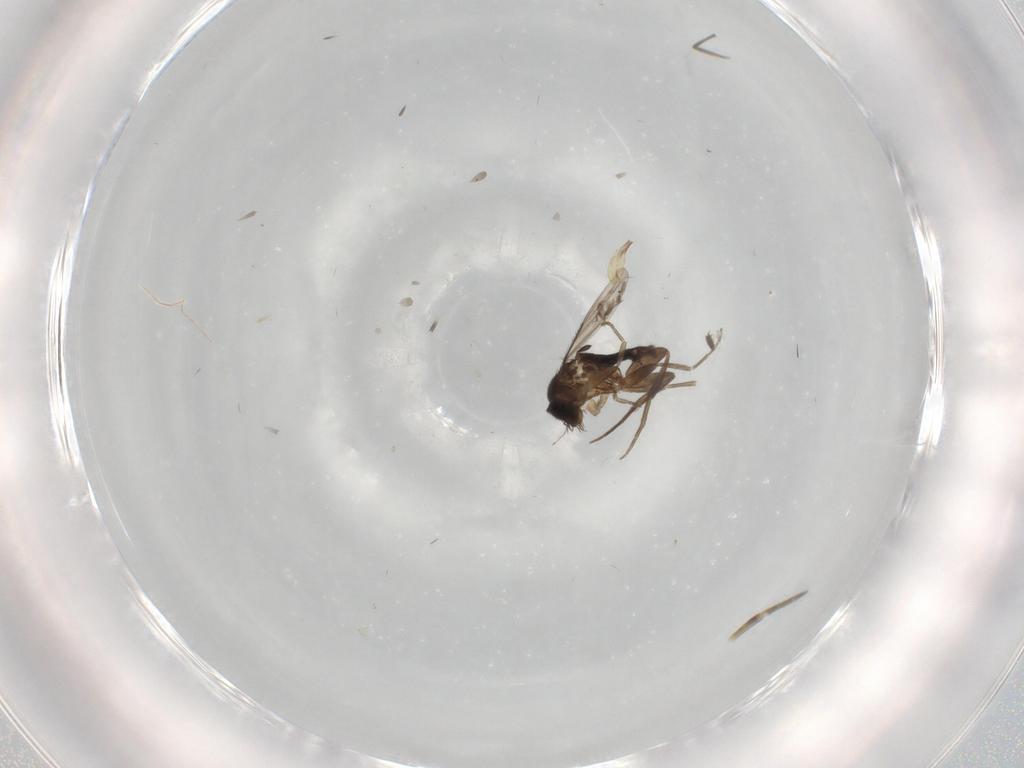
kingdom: Animalia
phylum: Arthropoda
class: Insecta
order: Diptera
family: Phoridae
